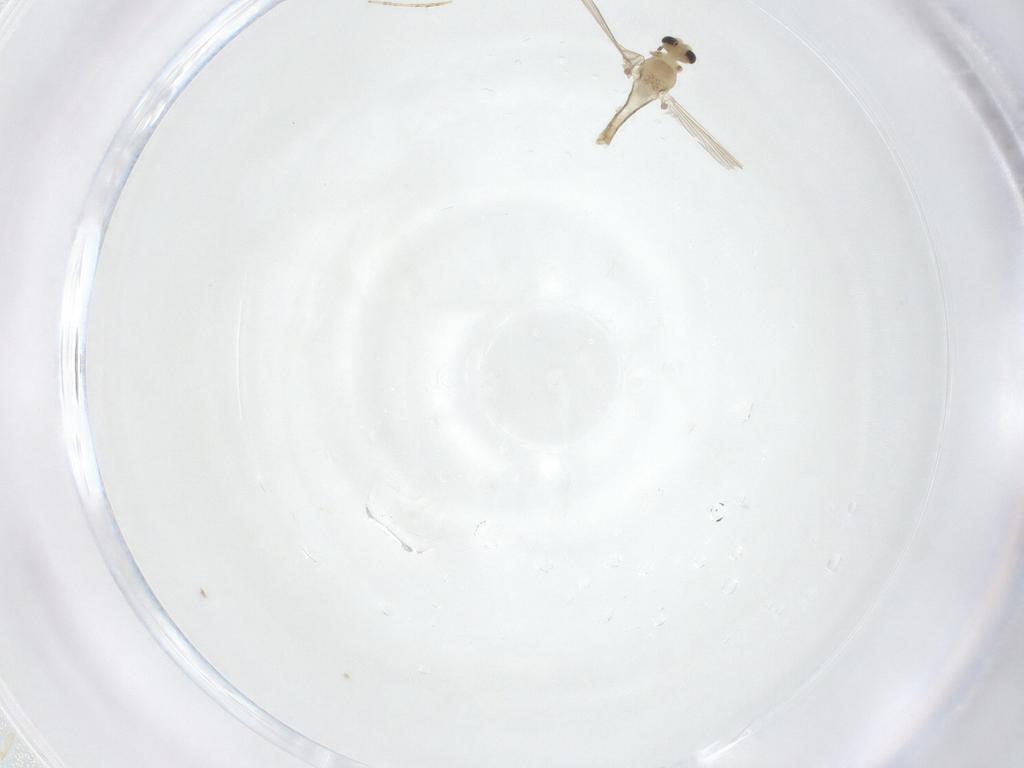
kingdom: Animalia
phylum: Arthropoda
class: Insecta
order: Diptera
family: Chironomidae
